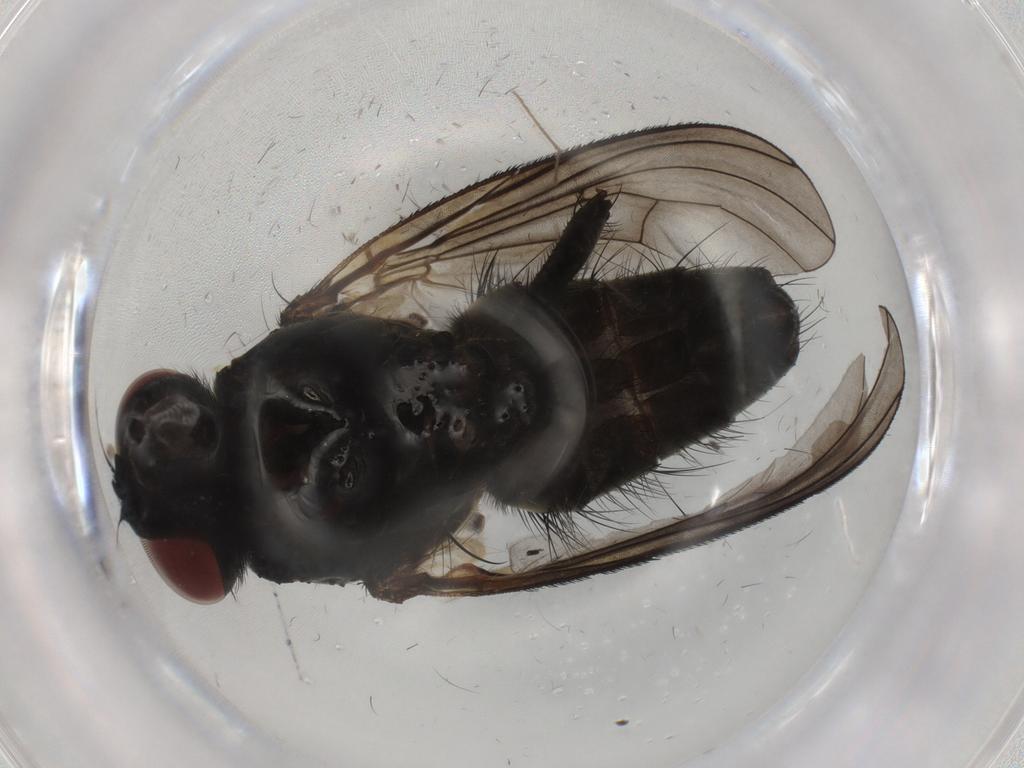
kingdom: Animalia
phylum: Arthropoda
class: Insecta
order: Diptera
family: Muscidae
